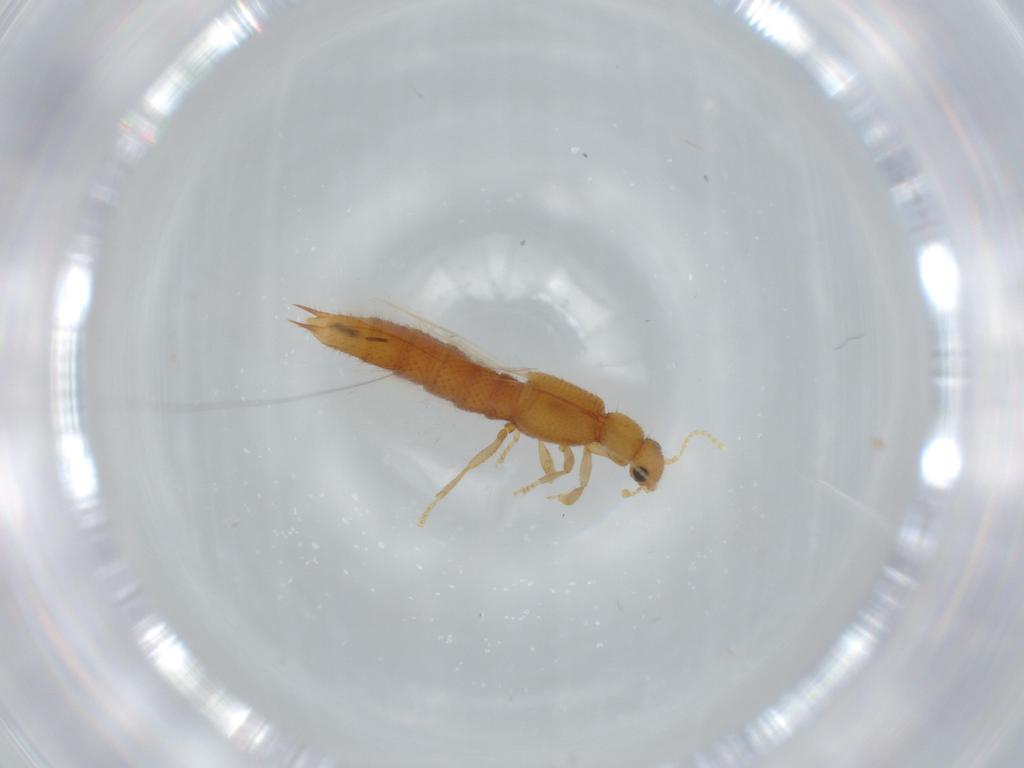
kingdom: Animalia
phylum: Arthropoda
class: Insecta
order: Coleoptera
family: Staphylinidae
